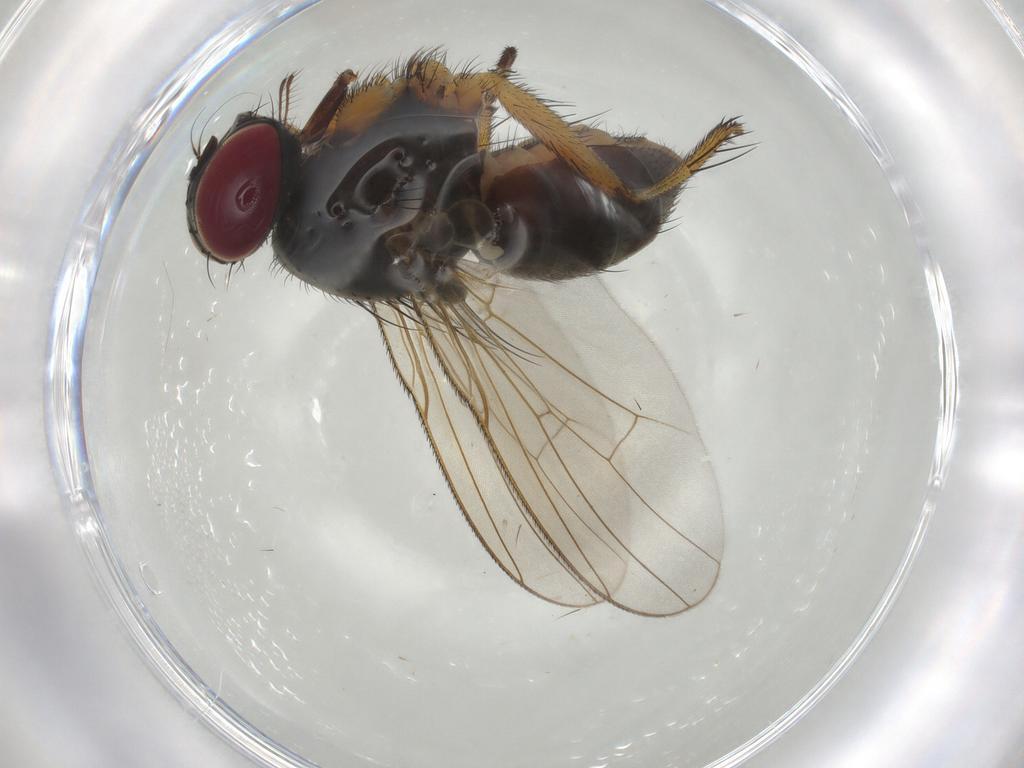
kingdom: Animalia
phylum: Arthropoda
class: Insecta
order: Diptera
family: Muscidae
